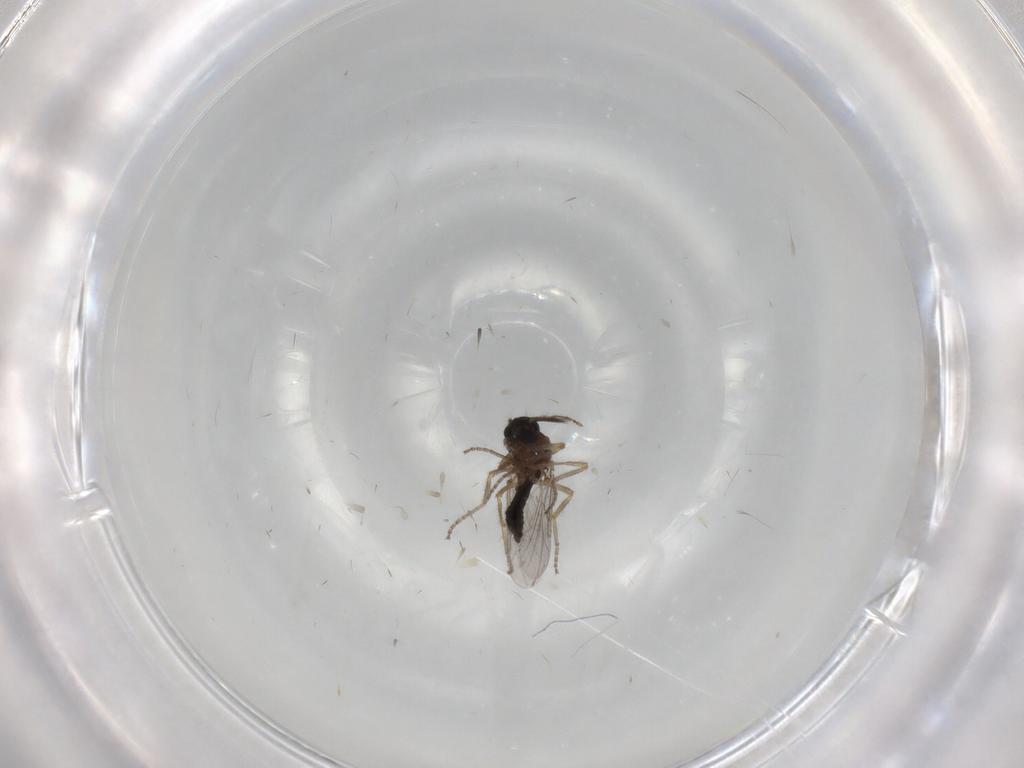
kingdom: Animalia
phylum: Arthropoda
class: Insecta
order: Diptera
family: Ceratopogonidae
